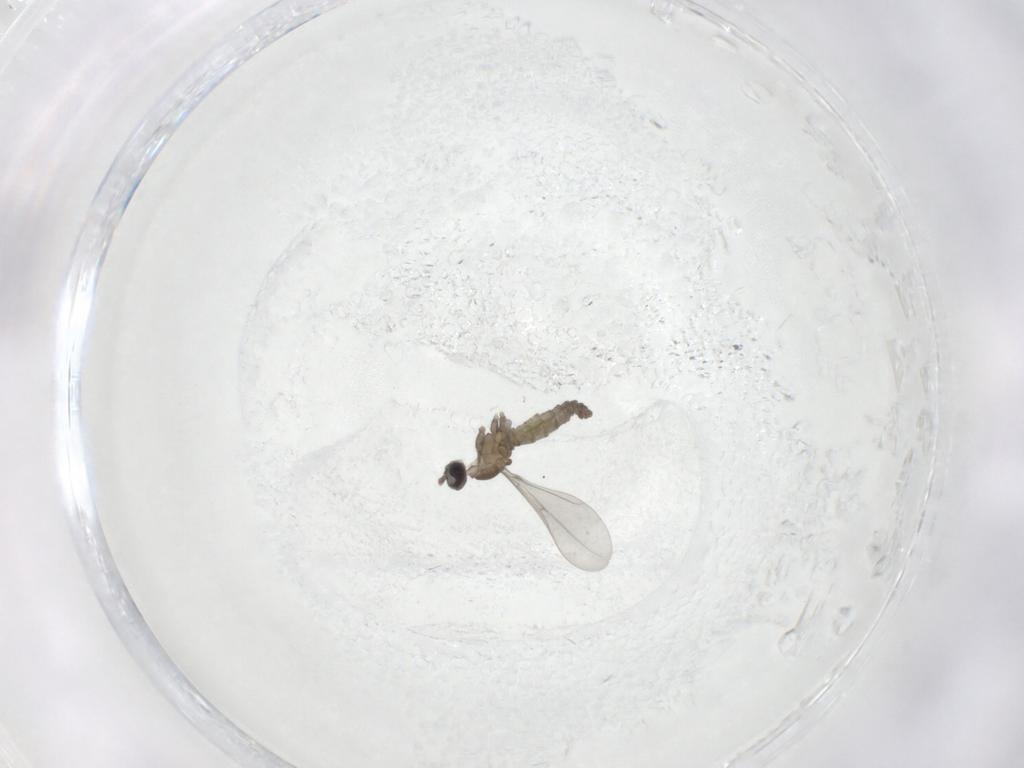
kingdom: Animalia
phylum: Arthropoda
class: Insecta
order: Diptera
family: Cecidomyiidae
